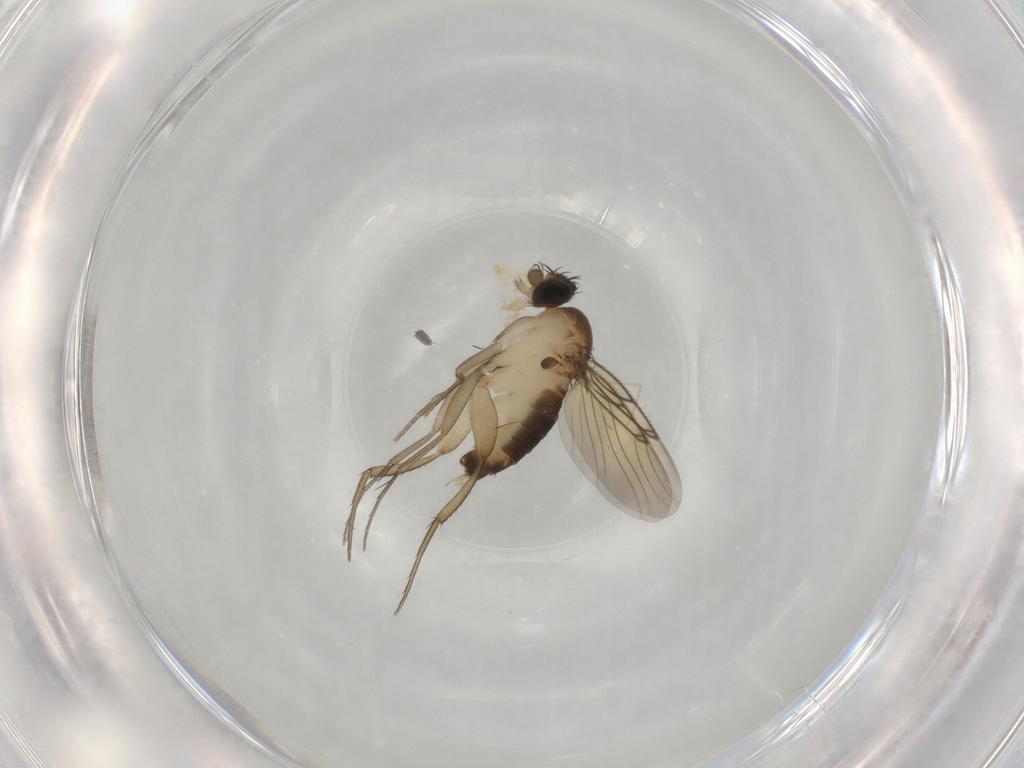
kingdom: Animalia
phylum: Arthropoda
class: Insecta
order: Diptera
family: Tabanidae
